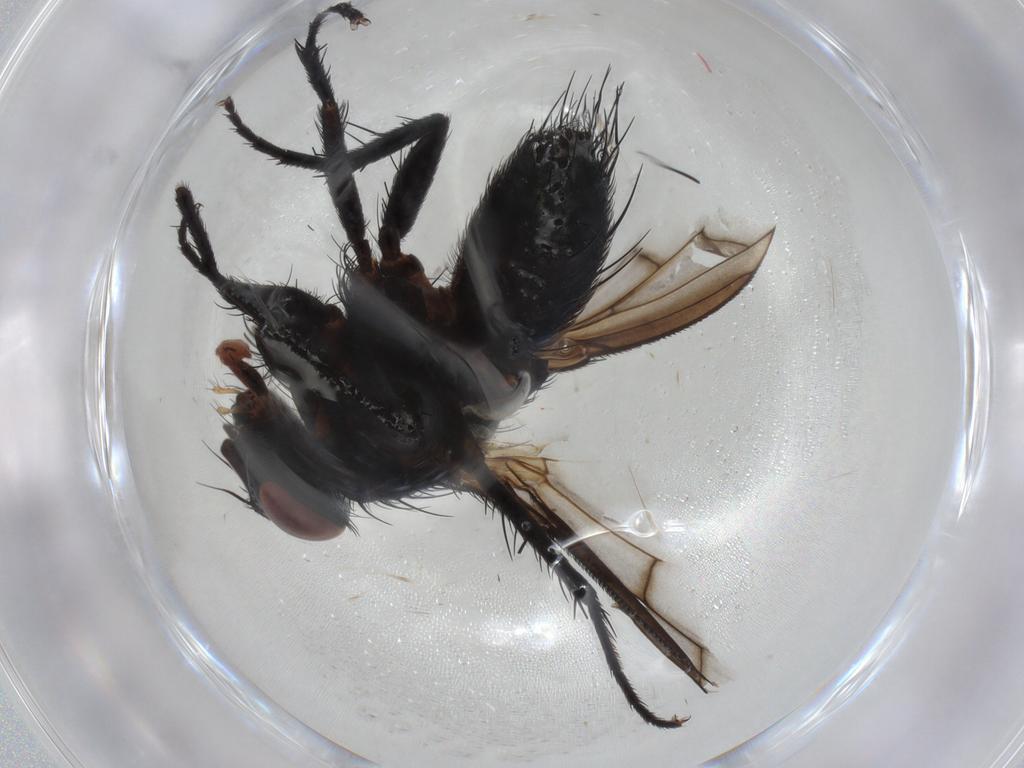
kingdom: Animalia
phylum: Arthropoda
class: Insecta
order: Diptera
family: Tachinidae
